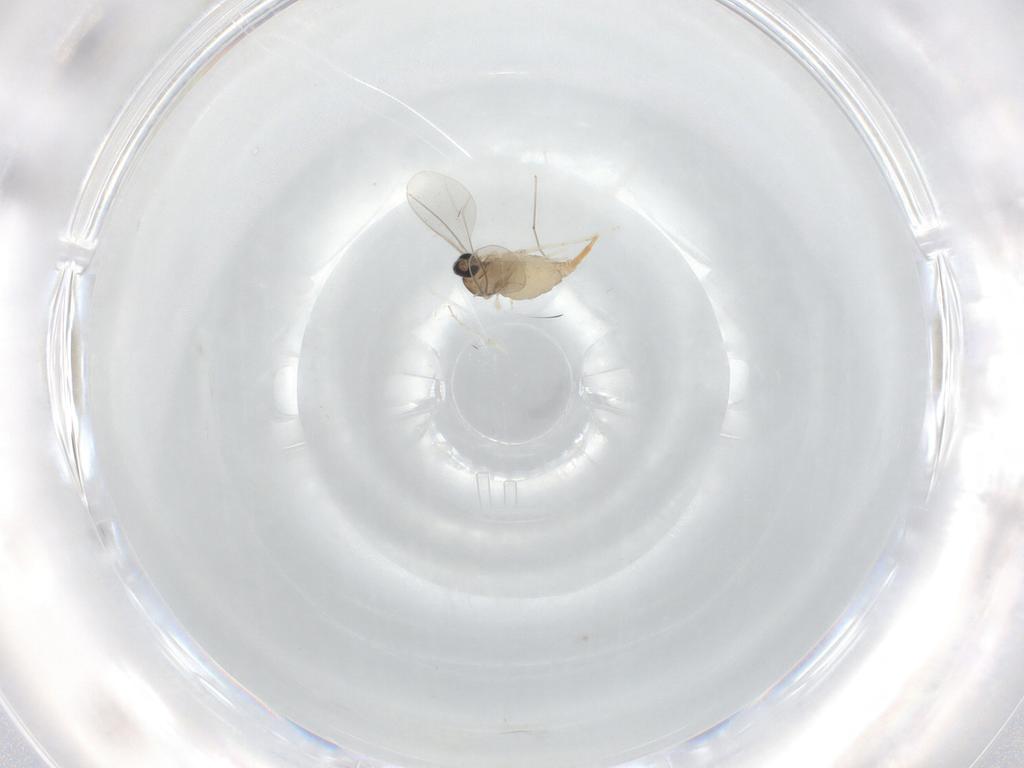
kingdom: Animalia
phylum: Arthropoda
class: Insecta
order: Diptera
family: Cecidomyiidae
